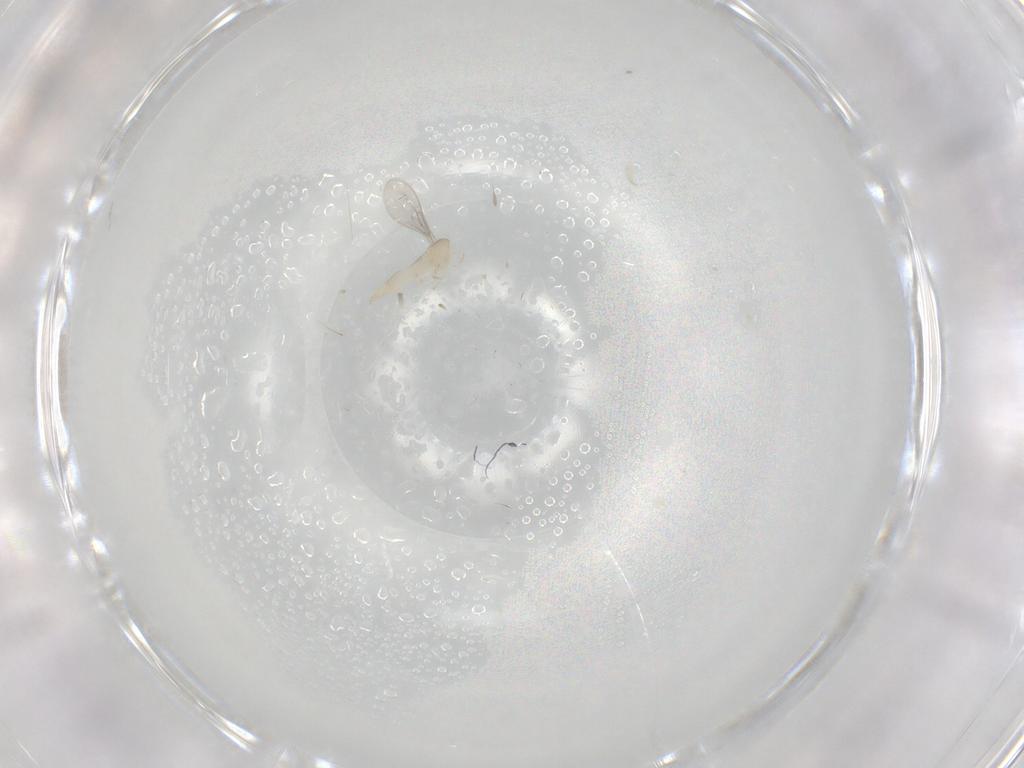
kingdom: Animalia
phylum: Arthropoda
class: Insecta
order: Diptera
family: Cecidomyiidae
